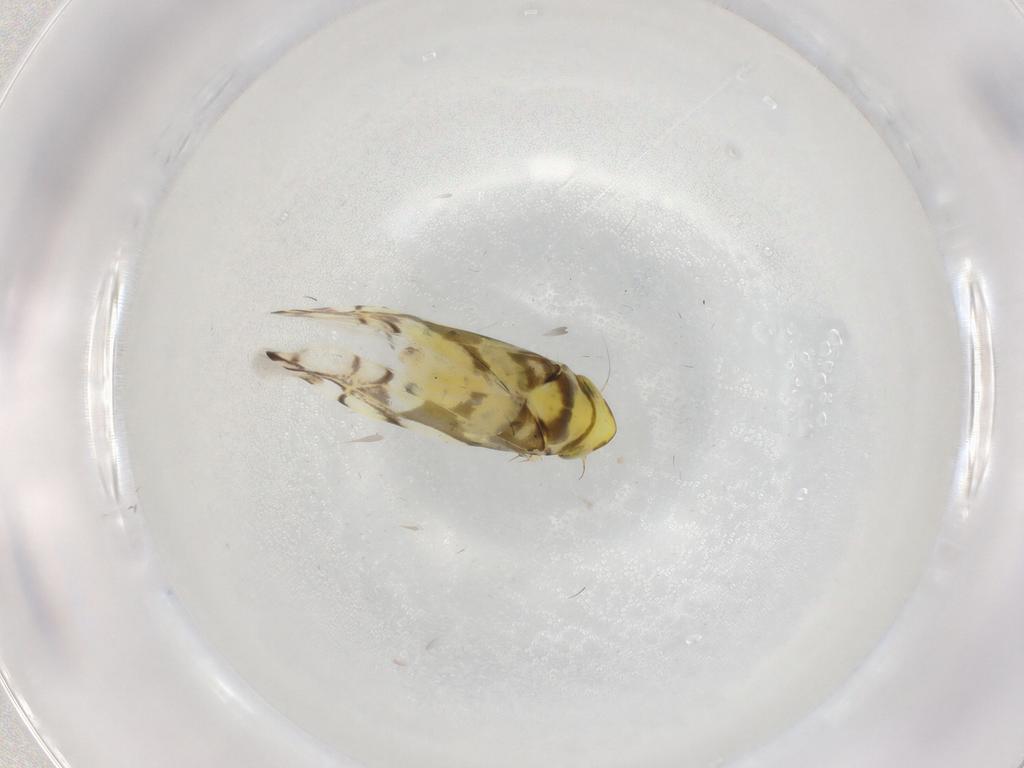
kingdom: Animalia
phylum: Arthropoda
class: Insecta
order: Hemiptera
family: Cicadellidae
